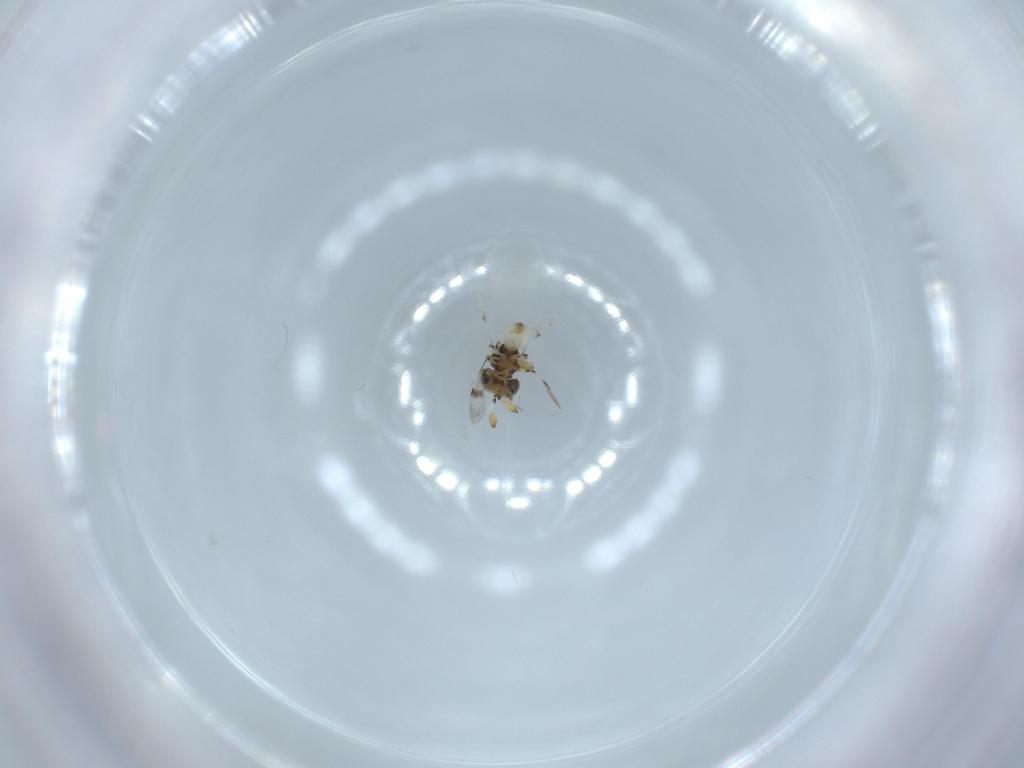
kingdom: Animalia
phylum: Arthropoda
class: Insecta
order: Hymenoptera
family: Scelionidae
